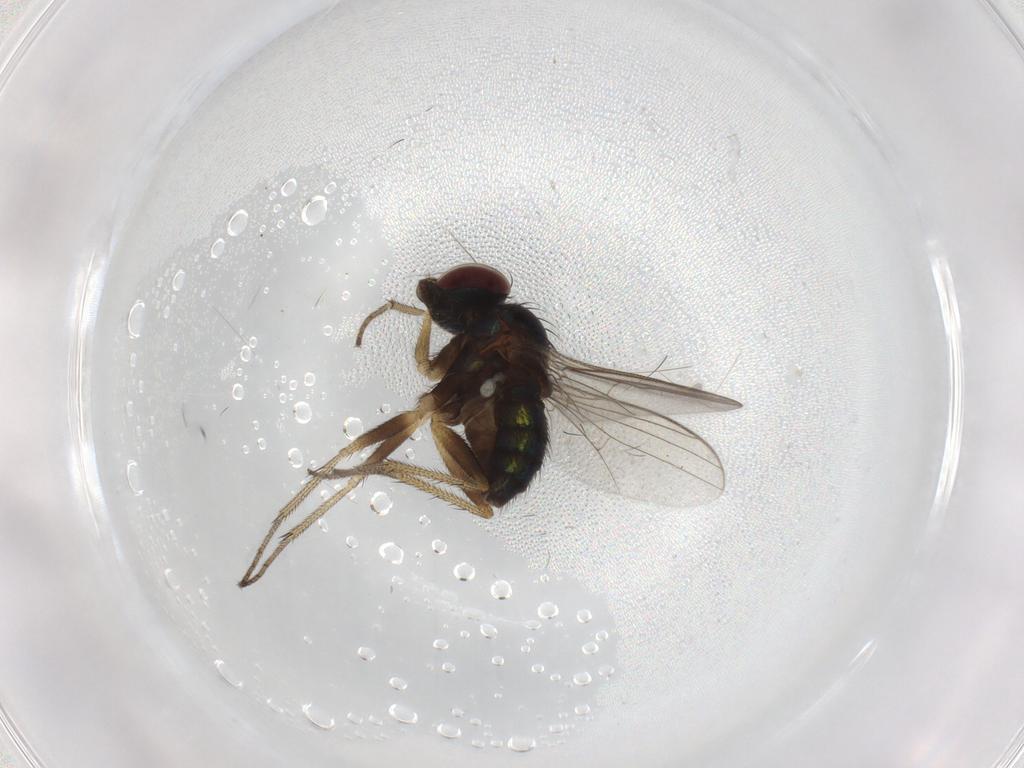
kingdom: Animalia
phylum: Arthropoda
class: Insecta
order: Diptera
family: Dolichopodidae
